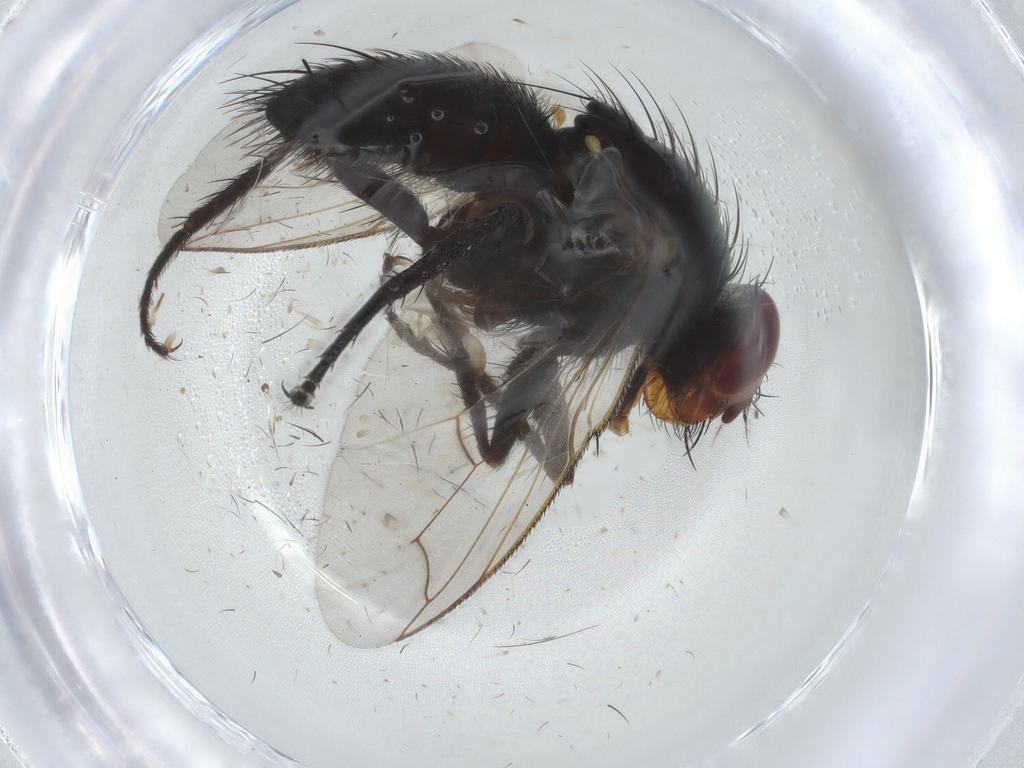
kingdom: Animalia
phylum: Arthropoda
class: Insecta
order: Diptera
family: Tachinidae
